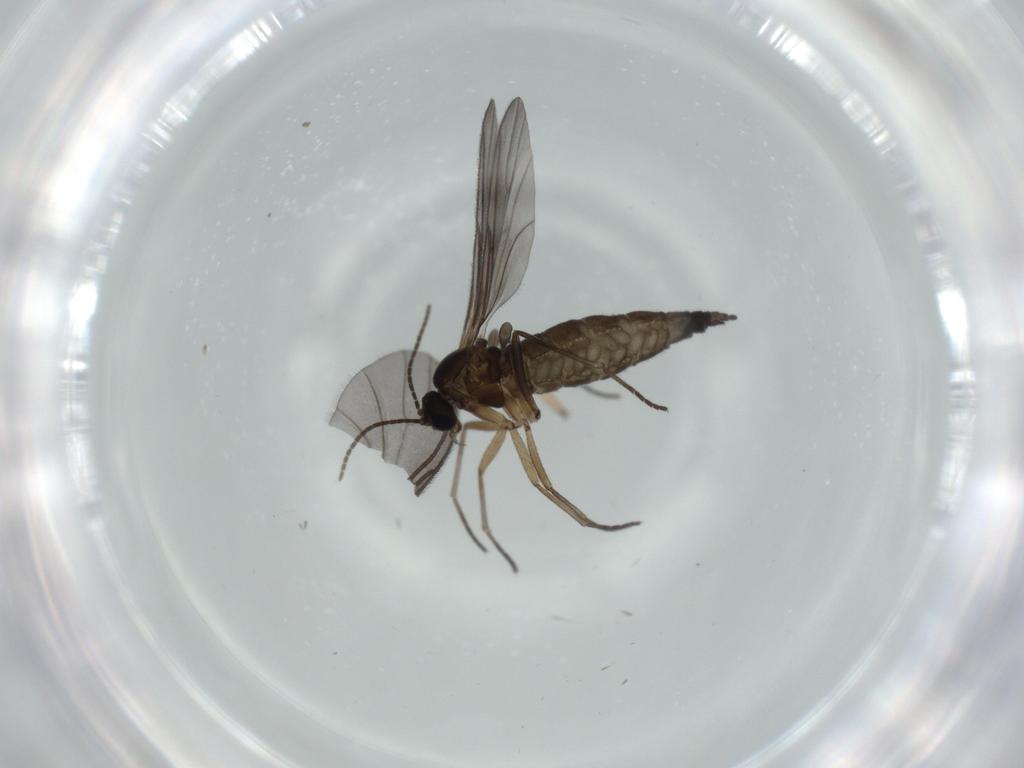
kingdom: Animalia
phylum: Arthropoda
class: Insecta
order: Diptera
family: Sciaridae
